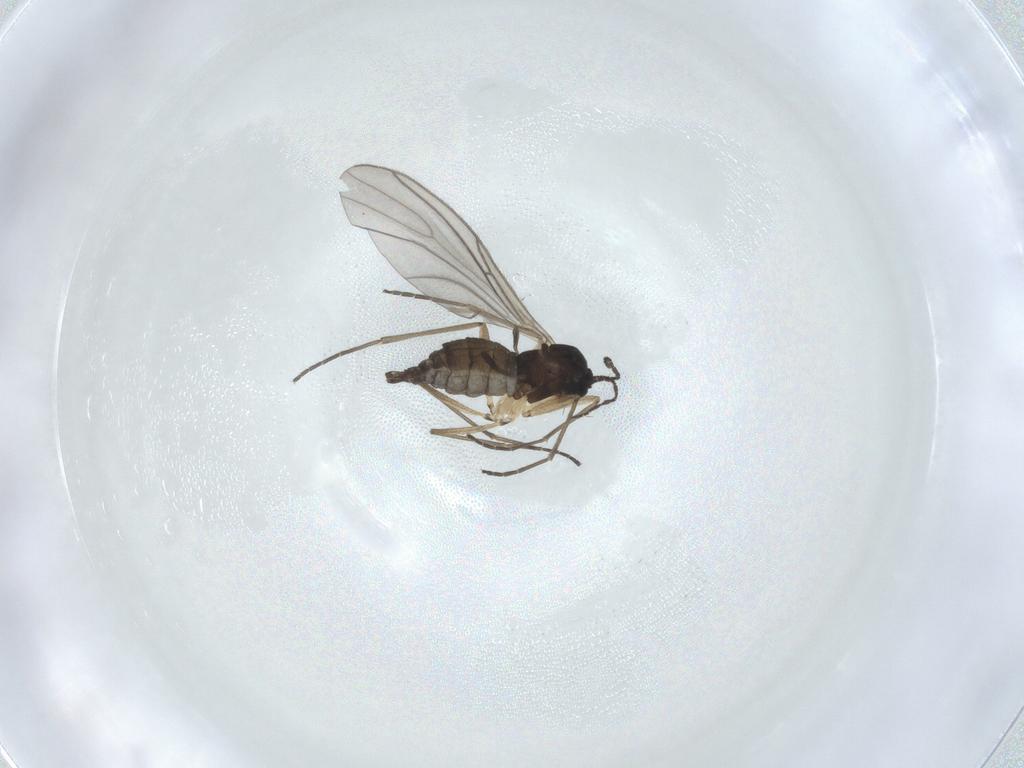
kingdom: Animalia
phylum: Arthropoda
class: Insecta
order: Diptera
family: Sciaridae
